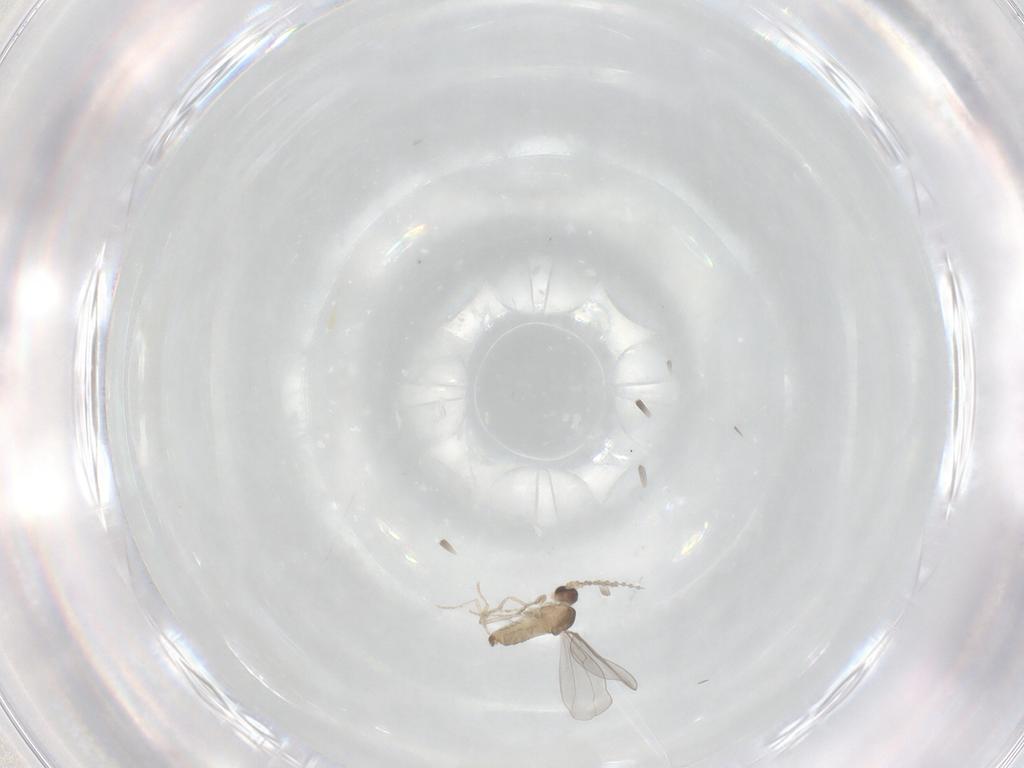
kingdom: Animalia
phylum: Arthropoda
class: Insecta
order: Diptera
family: Cecidomyiidae
